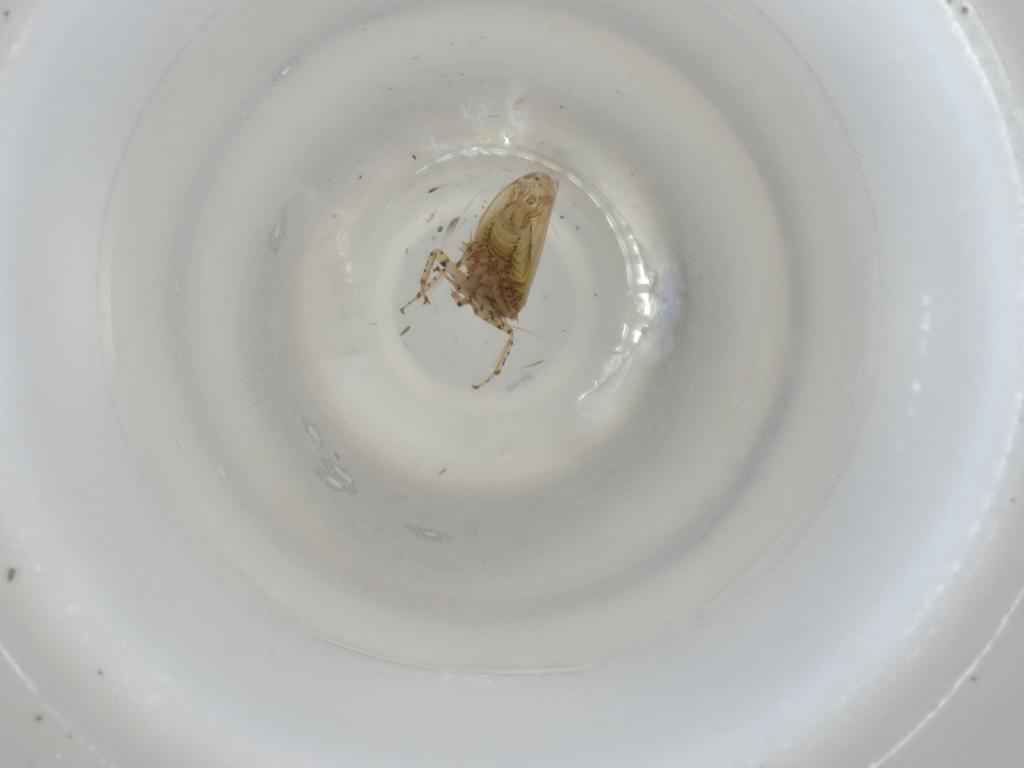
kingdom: Animalia
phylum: Arthropoda
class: Insecta
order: Hemiptera
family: Cicadellidae
